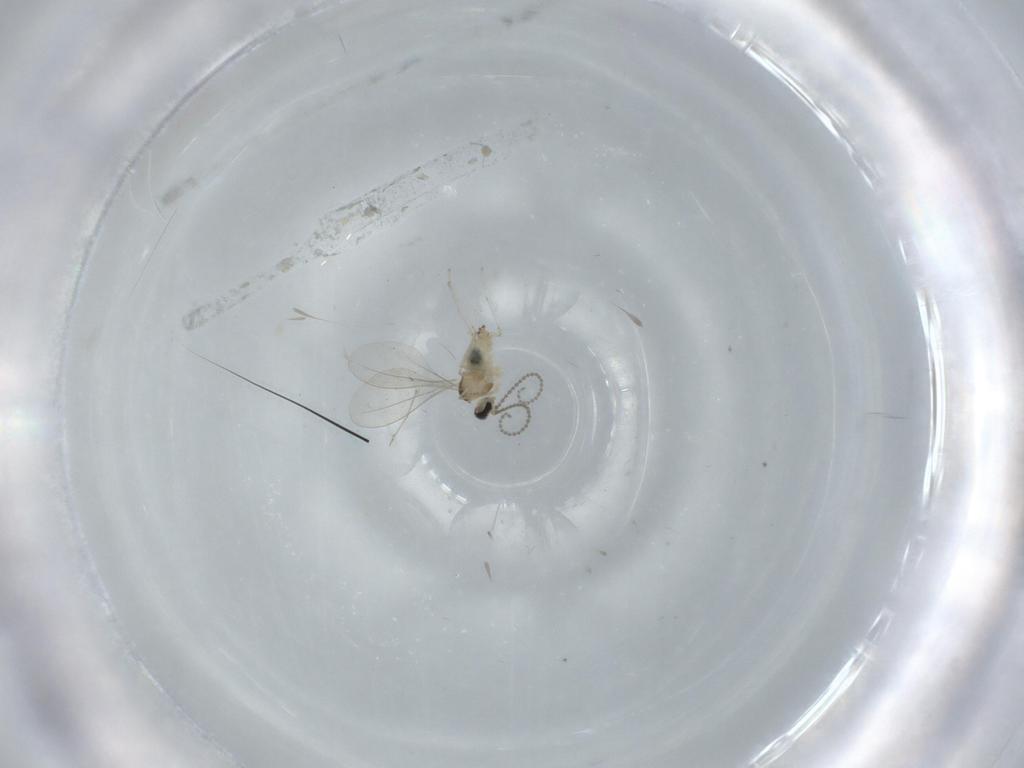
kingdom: Animalia
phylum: Arthropoda
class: Insecta
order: Diptera
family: Cecidomyiidae
